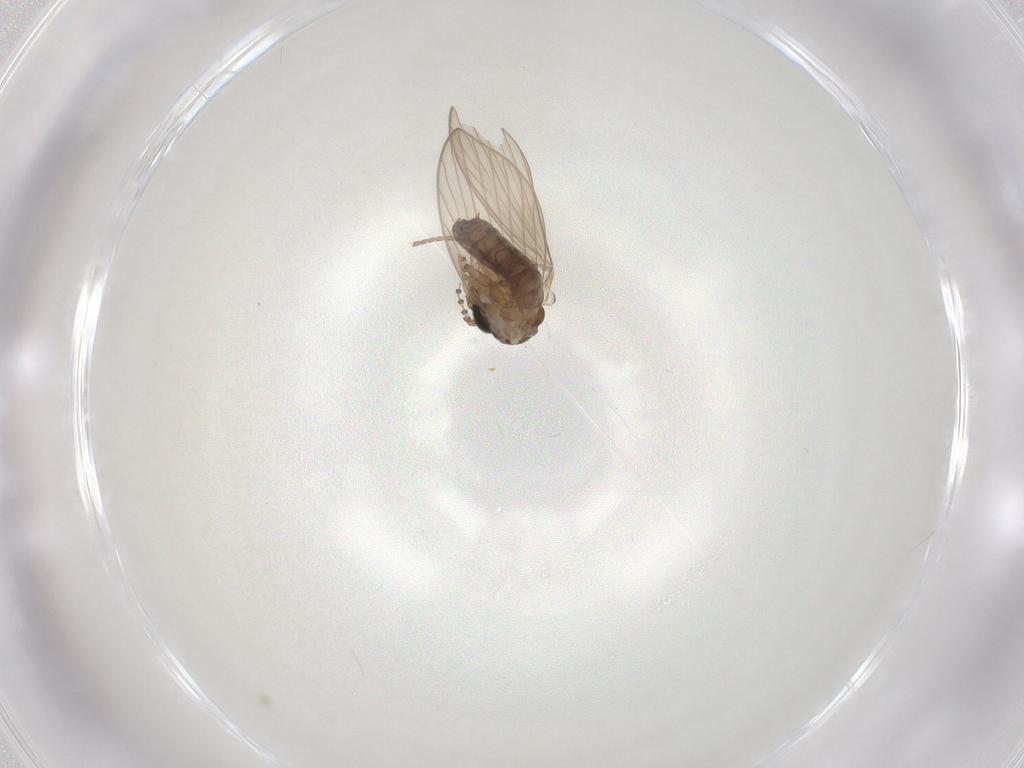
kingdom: Animalia
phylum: Arthropoda
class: Insecta
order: Diptera
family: Psychodidae
